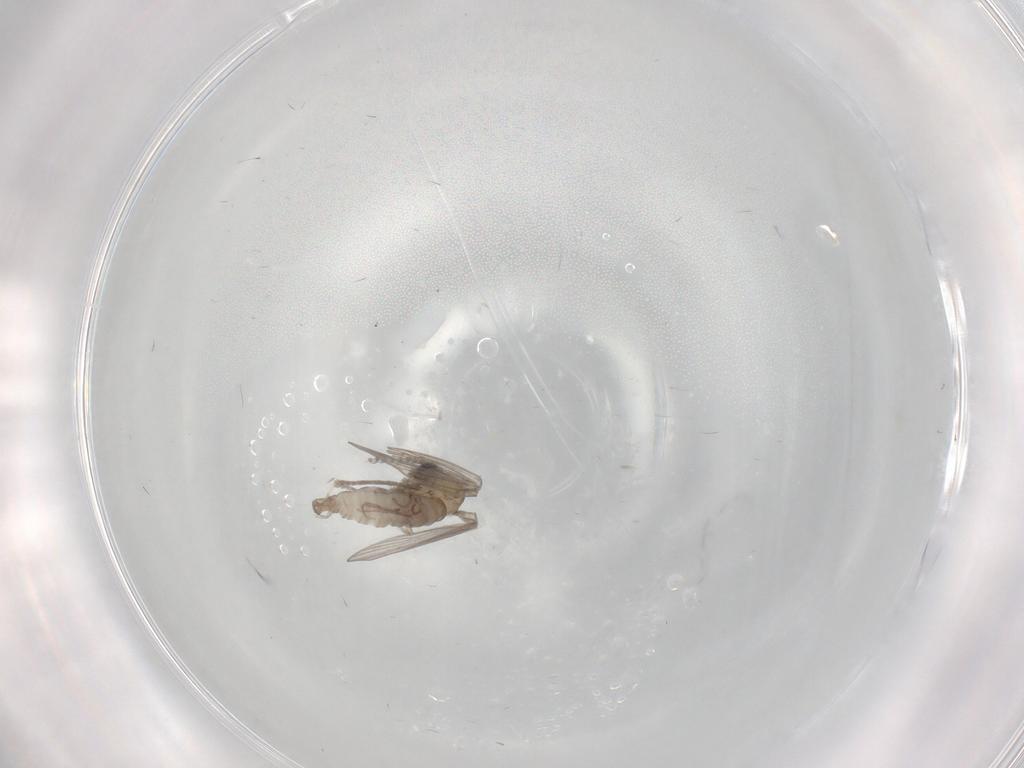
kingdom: Animalia
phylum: Arthropoda
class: Insecta
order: Diptera
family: Psychodidae
